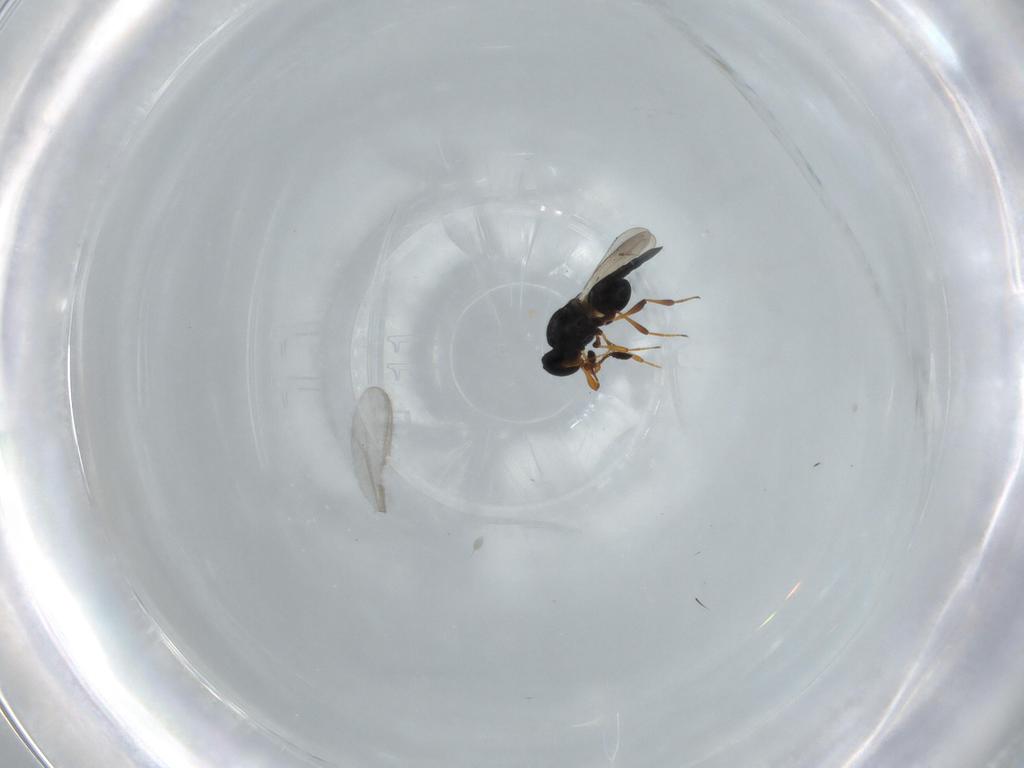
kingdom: Animalia
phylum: Arthropoda
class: Insecta
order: Hymenoptera
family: Platygastridae
